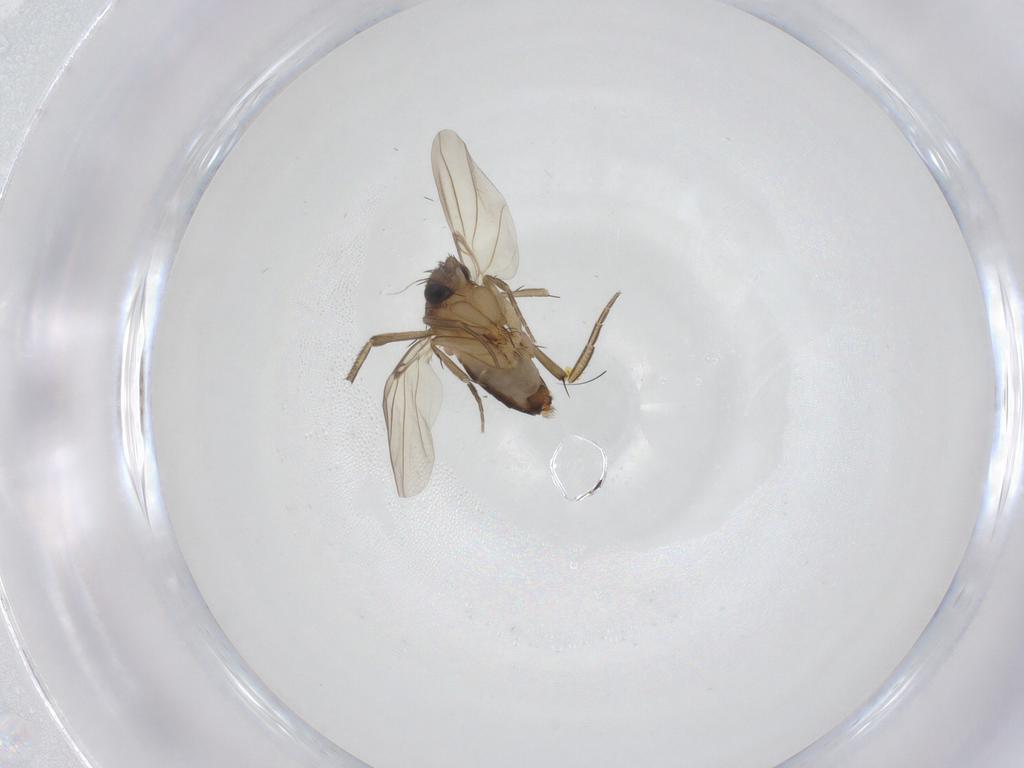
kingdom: Animalia
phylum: Arthropoda
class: Insecta
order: Diptera
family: Phoridae
